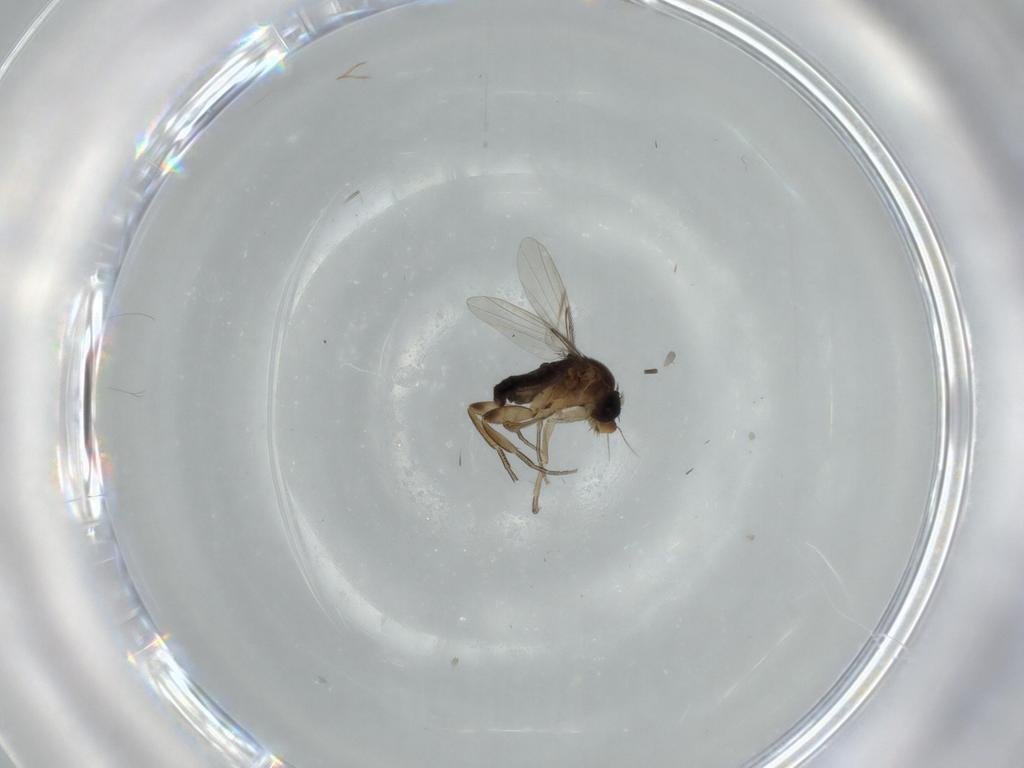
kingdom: Animalia
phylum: Arthropoda
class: Insecta
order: Diptera
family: Phoridae
